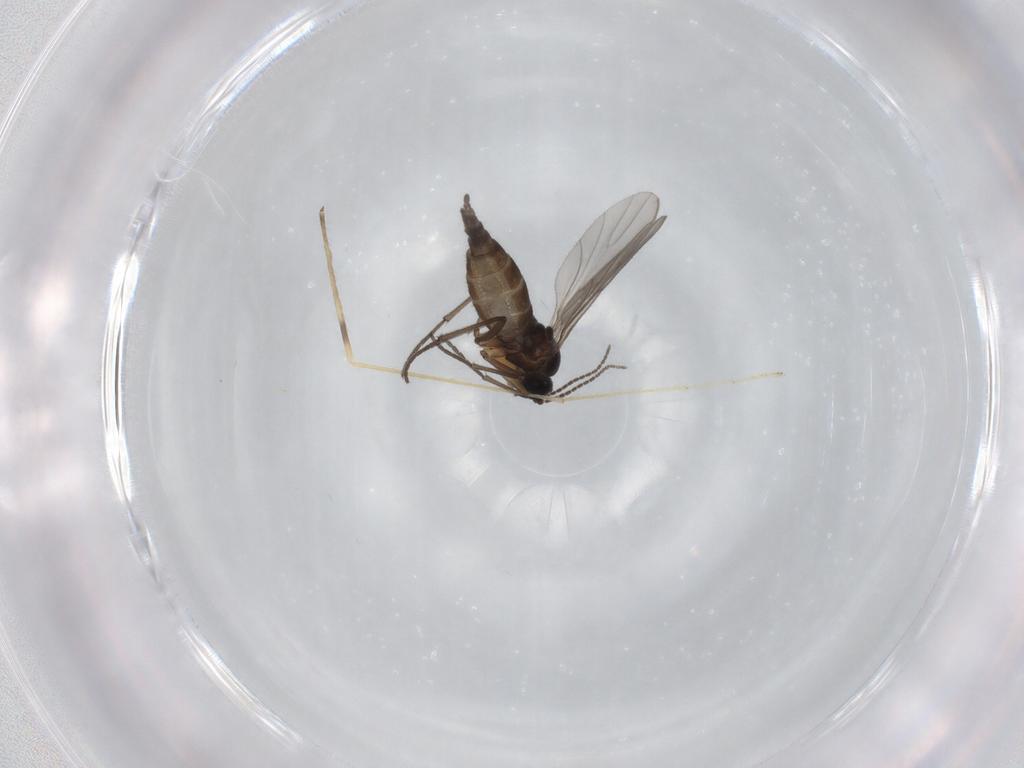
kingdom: Animalia
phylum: Arthropoda
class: Insecta
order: Diptera
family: Sciaridae
